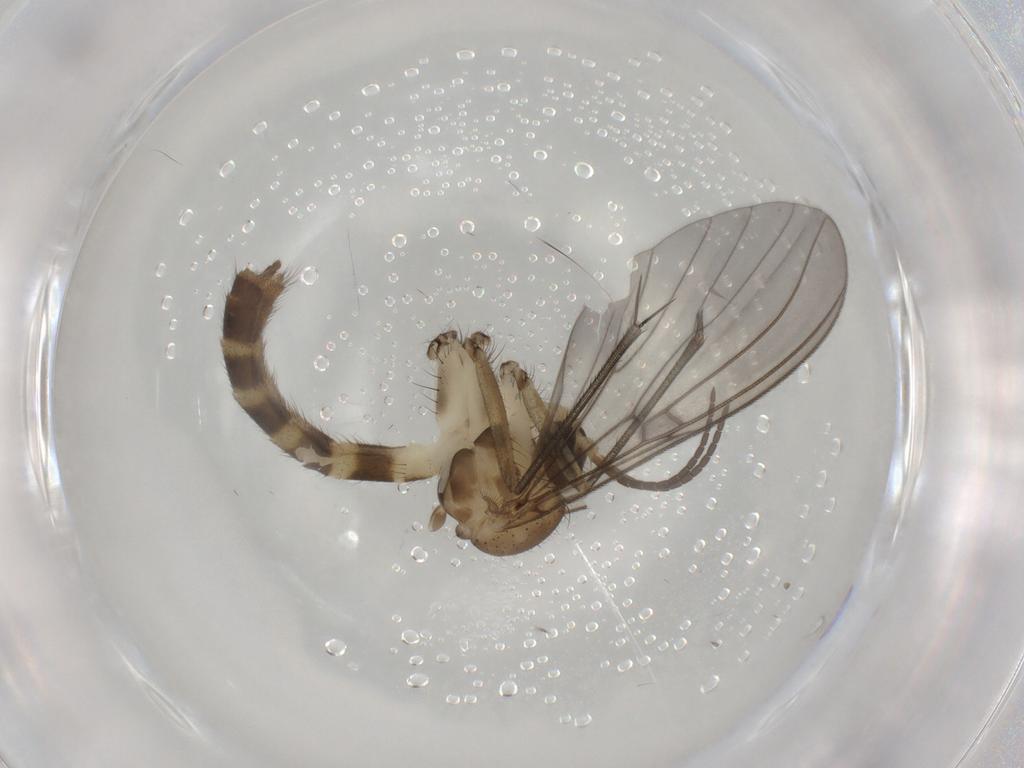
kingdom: Animalia
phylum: Arthropoda
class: Insecta
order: Diptera
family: Mycetophilidae
